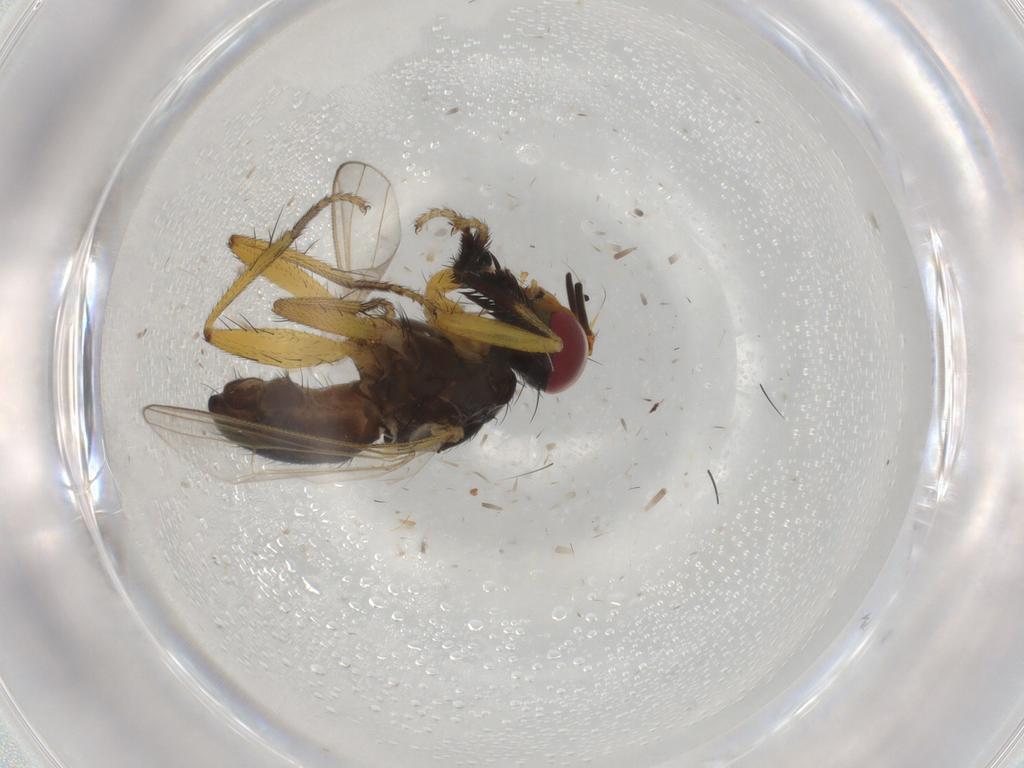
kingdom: Animalia
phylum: Arthropoda
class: Insecta
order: Diptera
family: Muscidae
